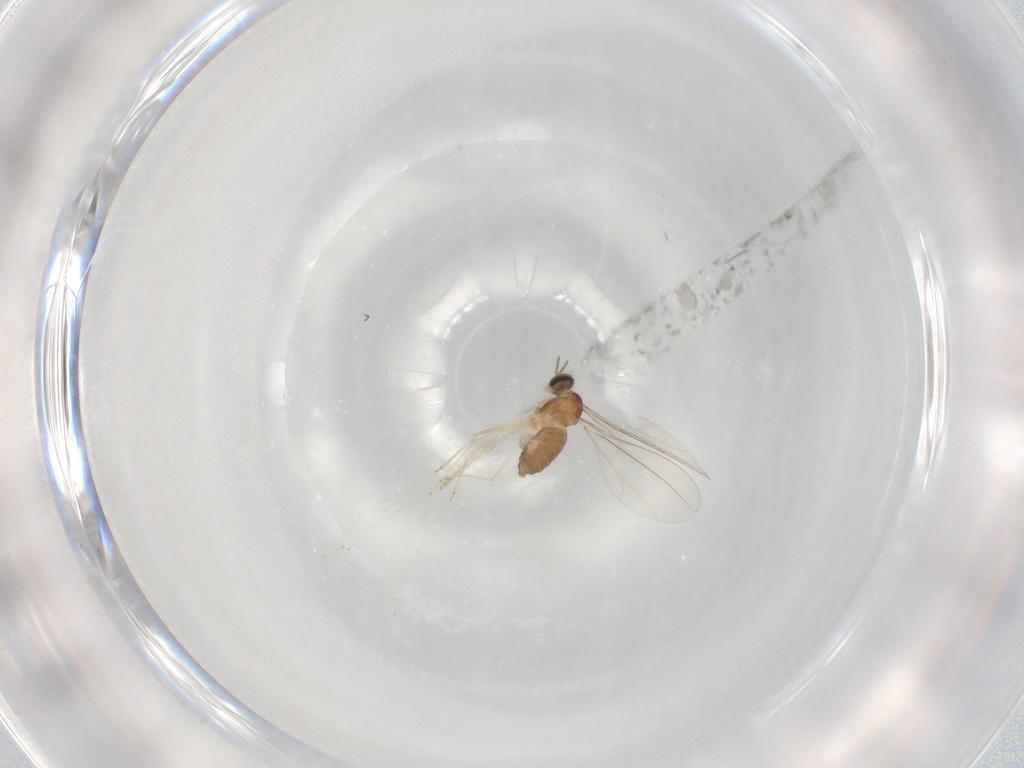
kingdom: Animalia
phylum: Arthropoda
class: Insecta
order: Diptera
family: Cecidomyiidae
